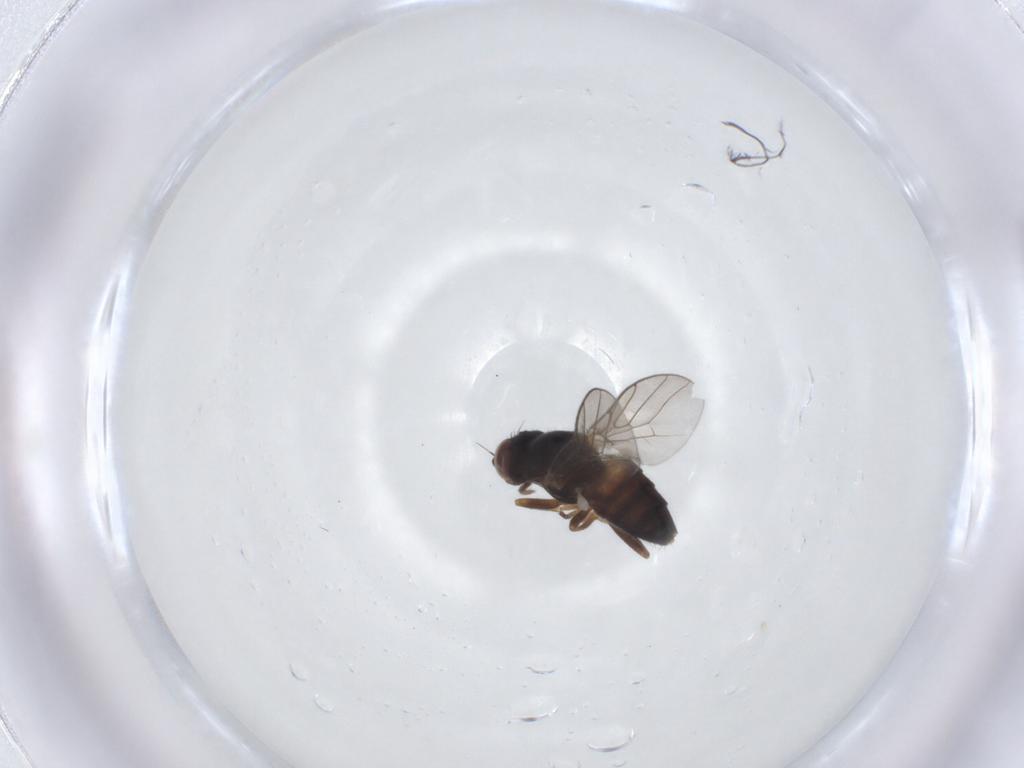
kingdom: Animalia
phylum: Arthropoda
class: Insecta
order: Diptera
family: Chloropidae
